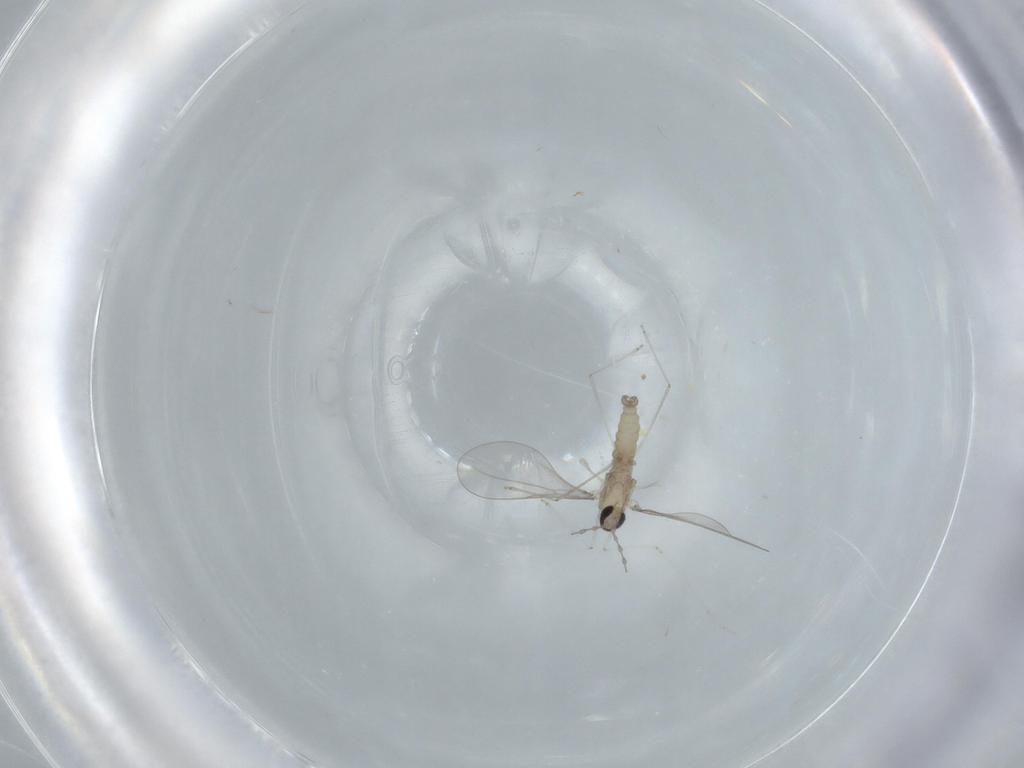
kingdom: Animalia
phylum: Arthropoda
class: Insecta
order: Diptera
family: Cecidomyiidae
